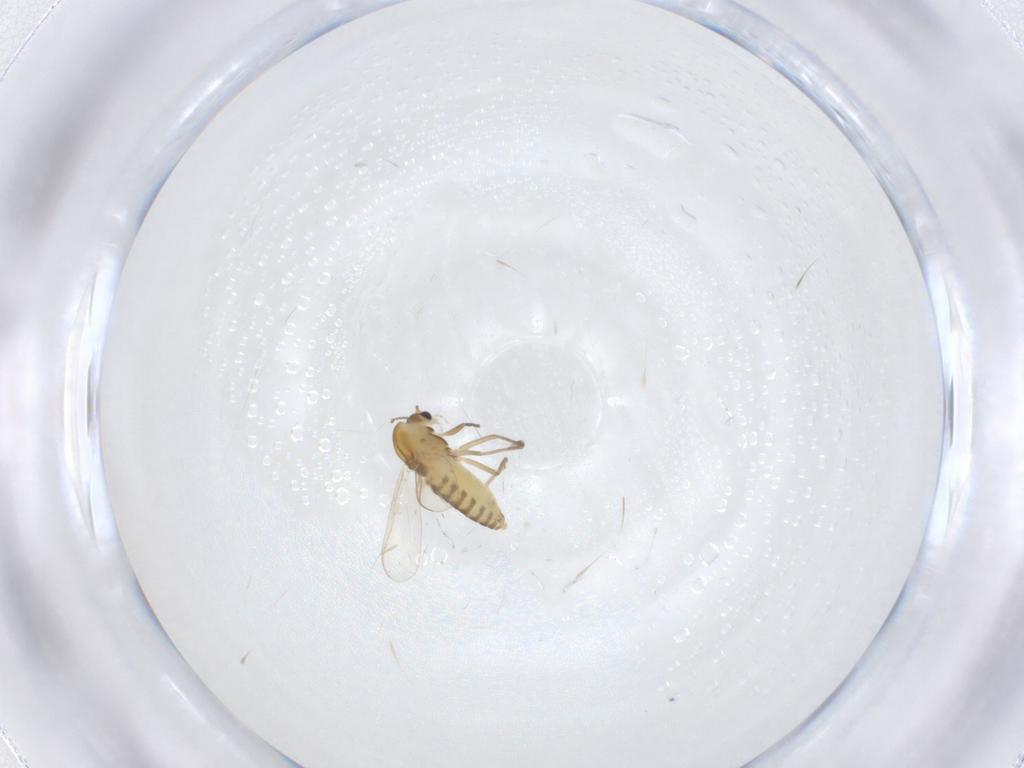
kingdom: Animalia
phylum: Arthropoda
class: Insecta
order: Diptera
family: Chironomidae
